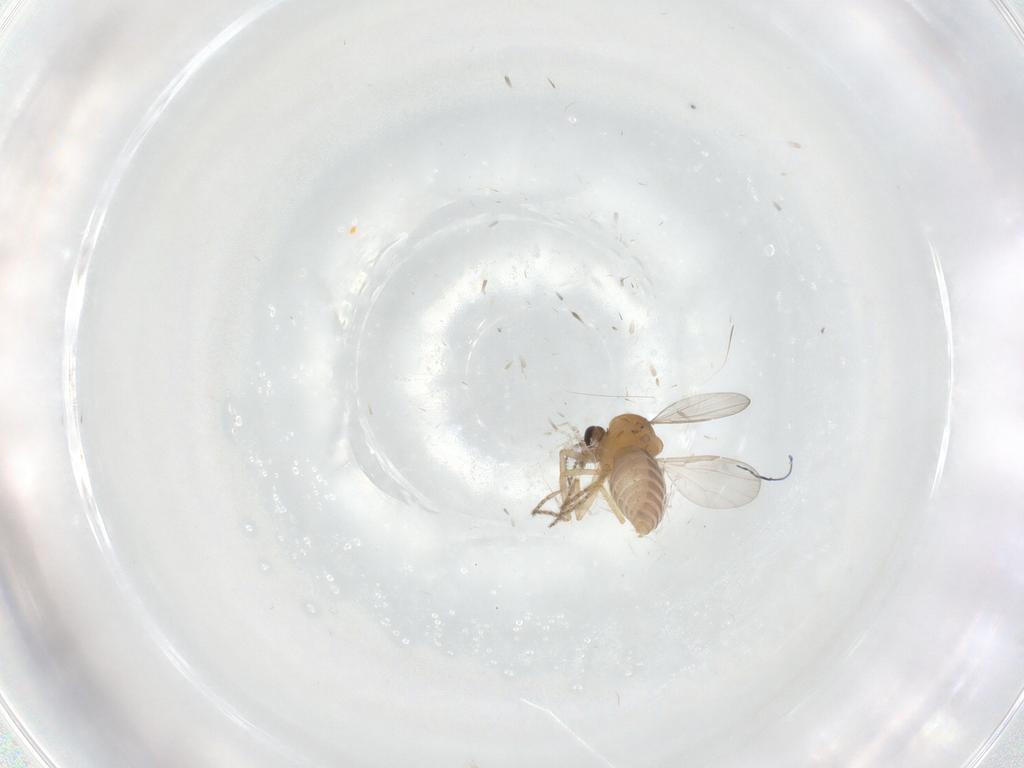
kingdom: Animalia
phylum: Arthropoda
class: Insecta
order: Diptera
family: Ceratopogonidae
